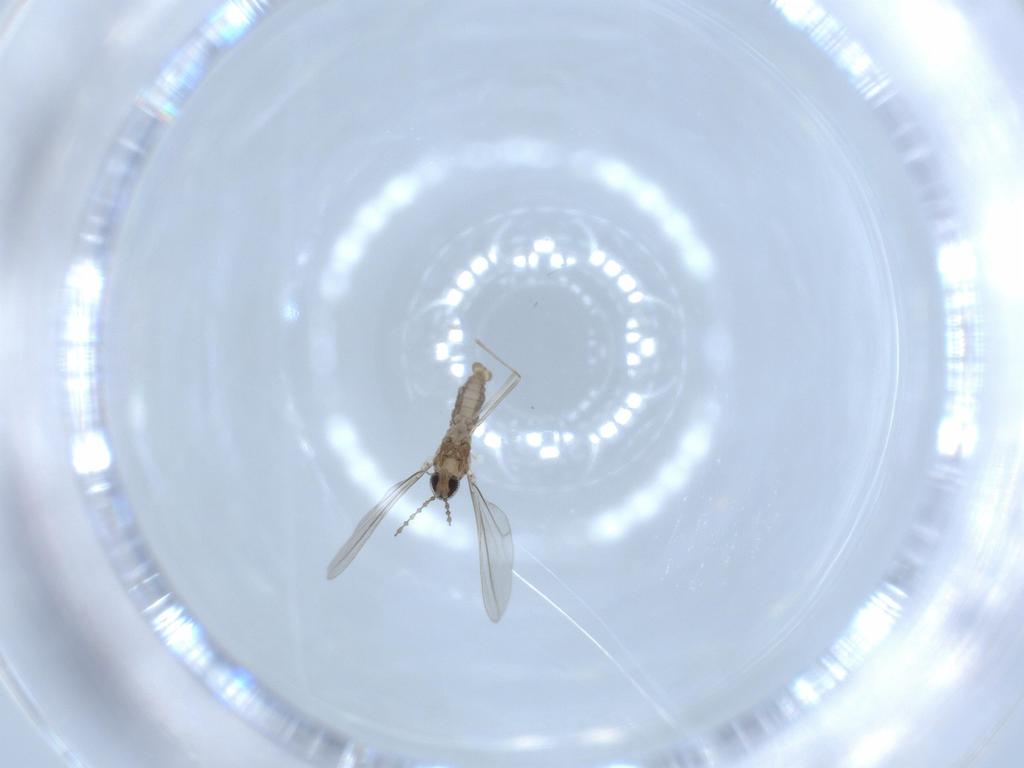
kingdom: Animalia
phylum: Arthropoda
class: Insecta
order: Diptera
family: Cecidomyiidae
